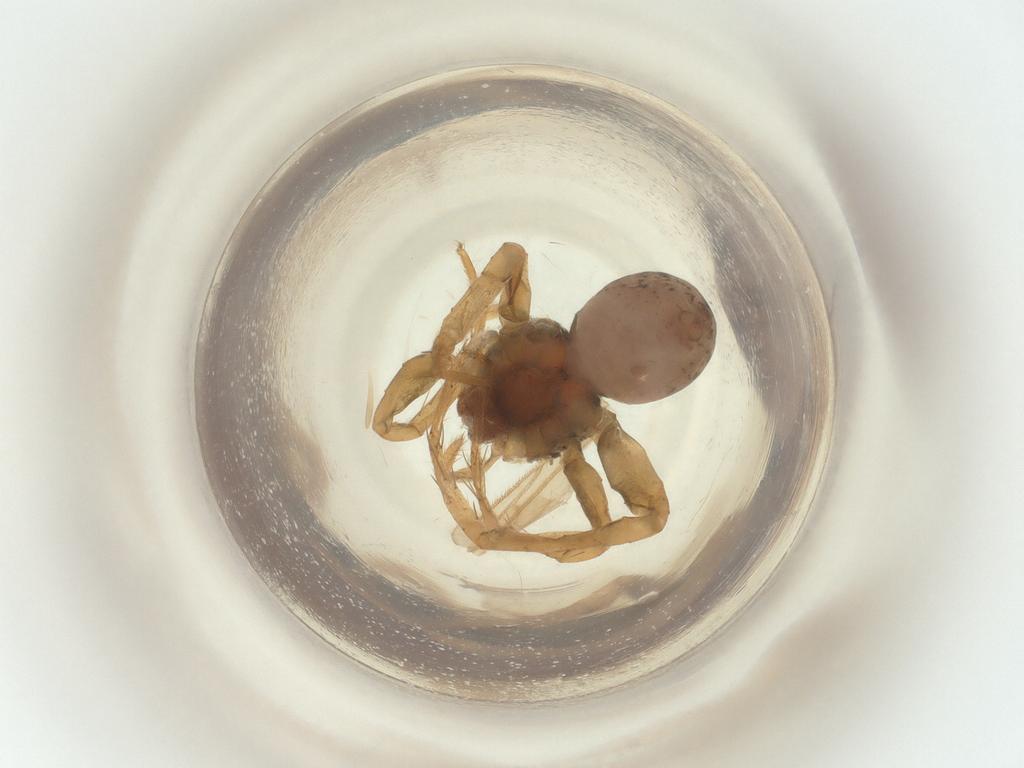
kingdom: Animalia
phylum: Arthropoda
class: Insecta
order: Diptera
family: Sciaridae
